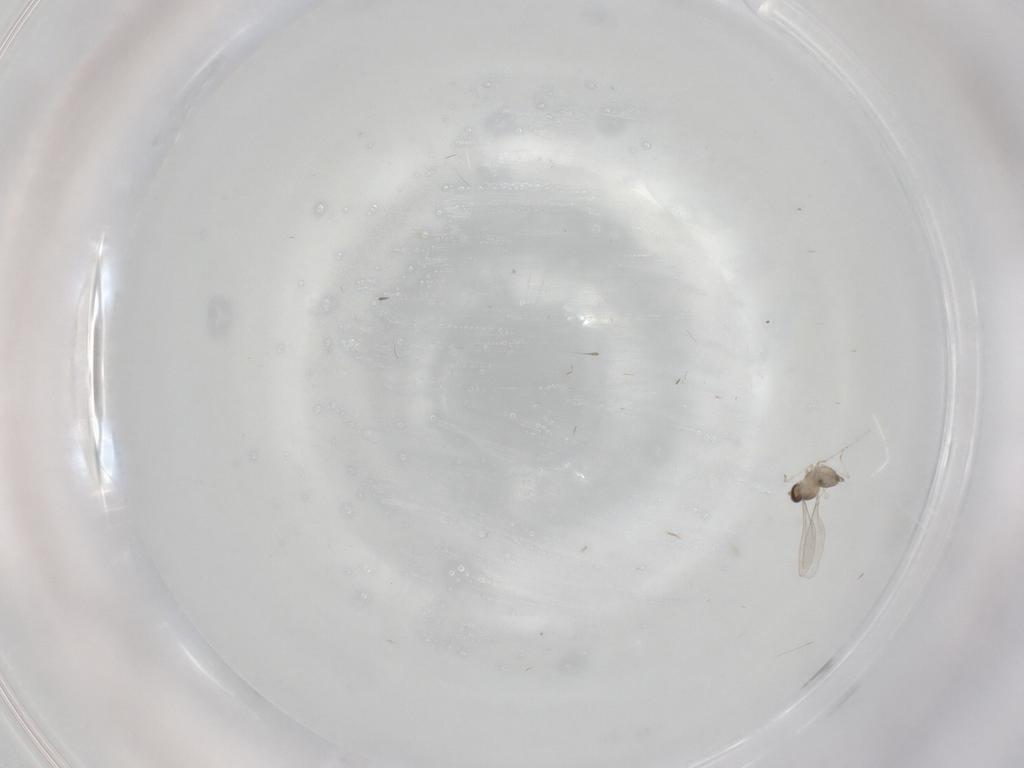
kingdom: Animalia
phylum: Arthropoda
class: Insecta
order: Diptera
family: Cecidomyiidae
